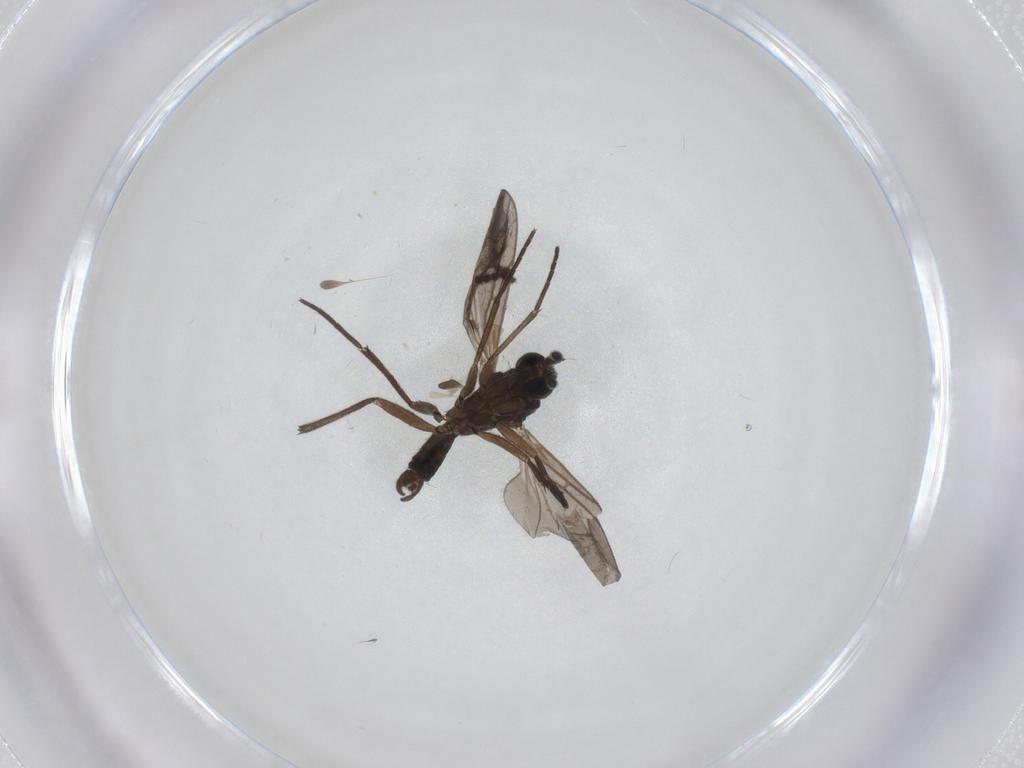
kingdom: Animalia
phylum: Arthropoda
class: Insecta
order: Diptera
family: Sciaridae
